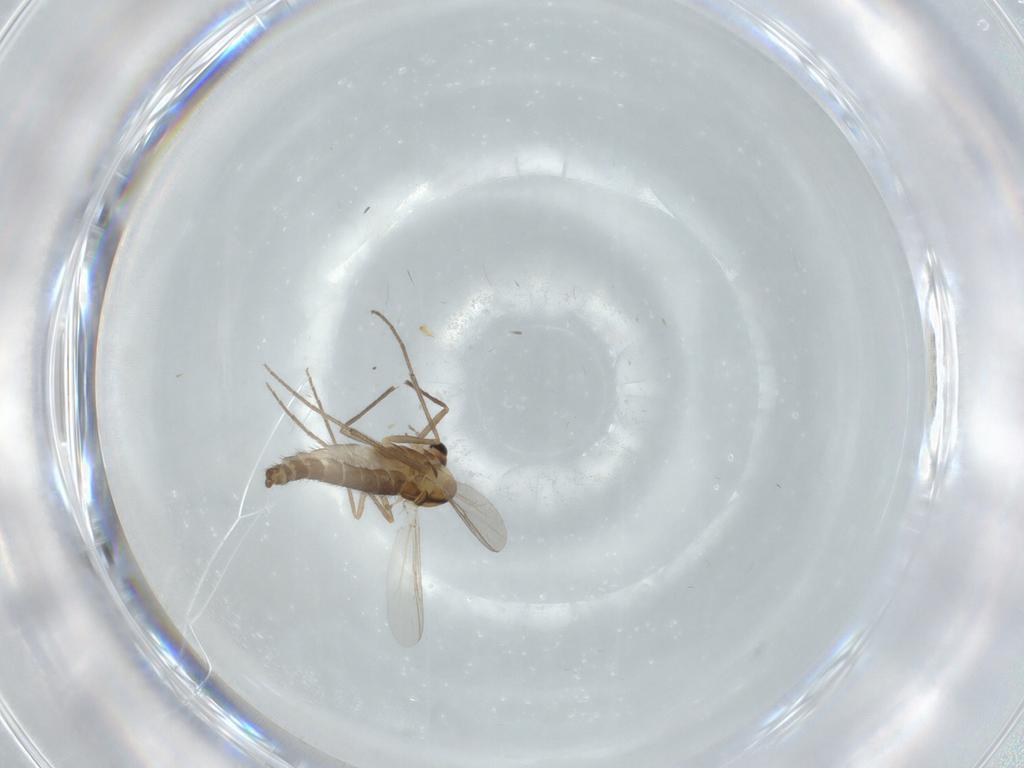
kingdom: Animalia
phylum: Arthropoda
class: Insecta
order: Diptera
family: Chironomidae
